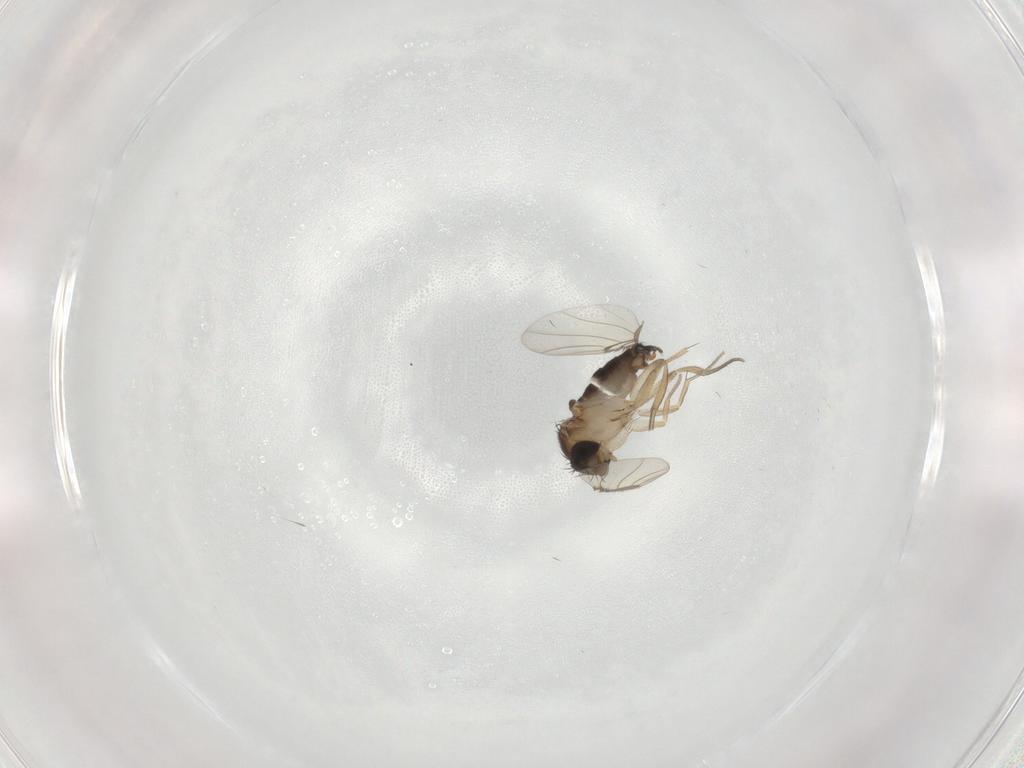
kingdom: Animalia
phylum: Arthropoda
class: Insecta
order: Diptera
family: Phoridae
